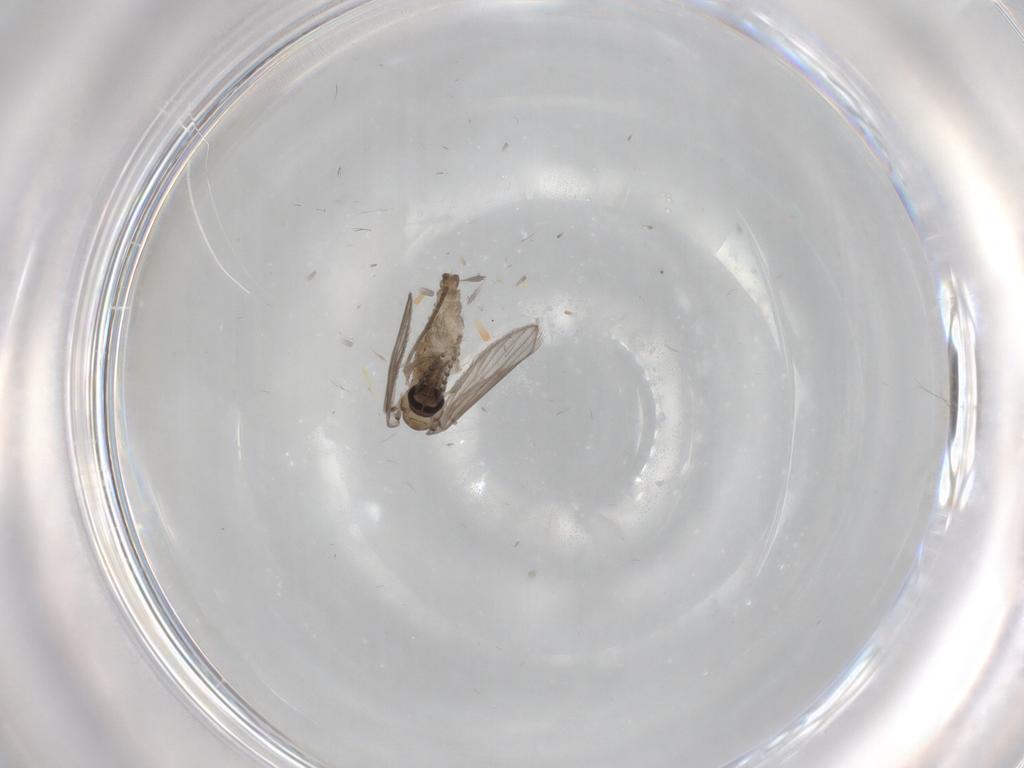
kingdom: Animalia
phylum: Arthropoda
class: Insecta
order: Diptera
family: Psychodidae
